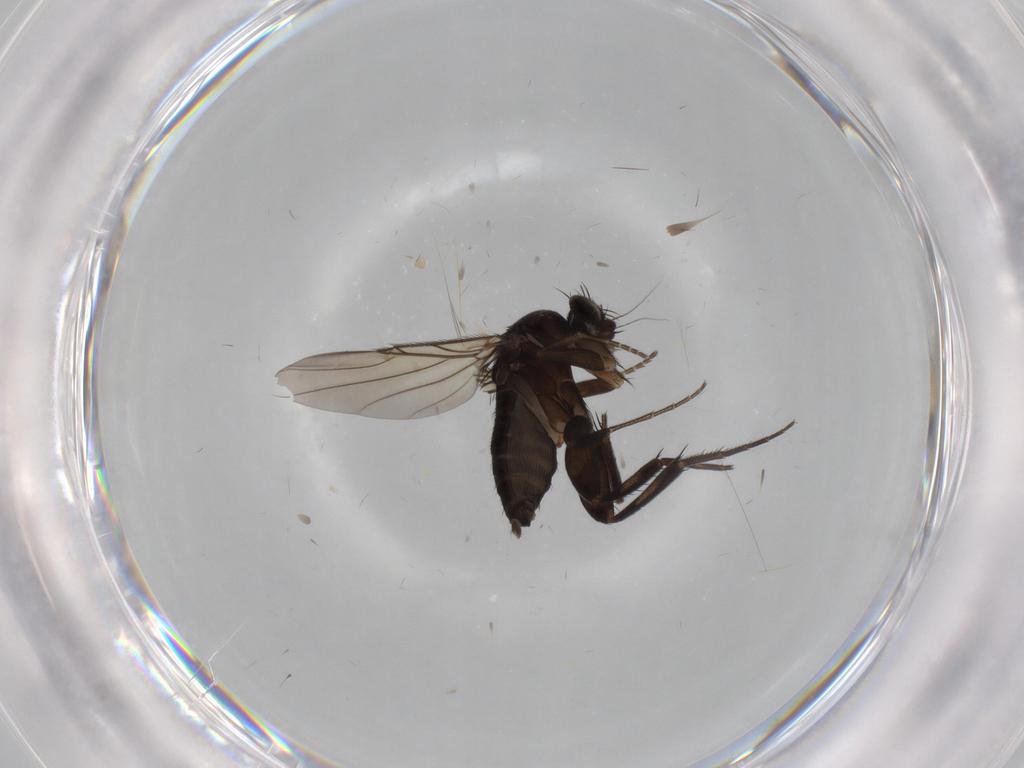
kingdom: Animalia
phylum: Arthropoda
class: Insecta
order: Diptera
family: Phoridae
